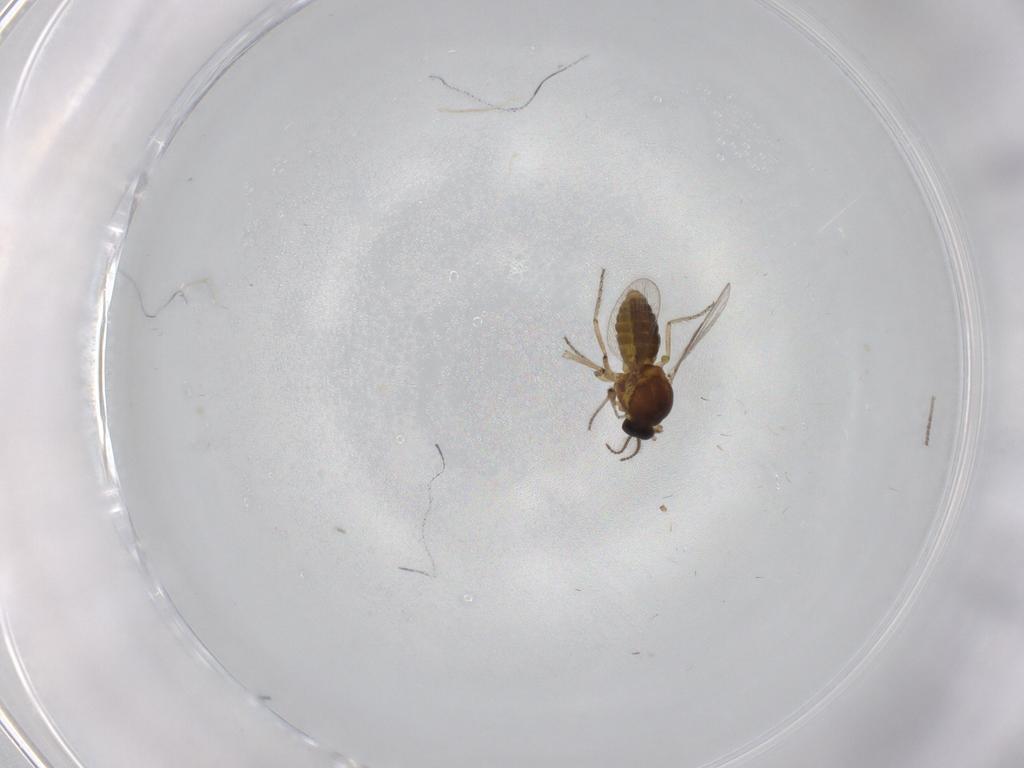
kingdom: Animalia
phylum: Arthropoda
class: Insecta
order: Diptera
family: Ceratopogonidae
